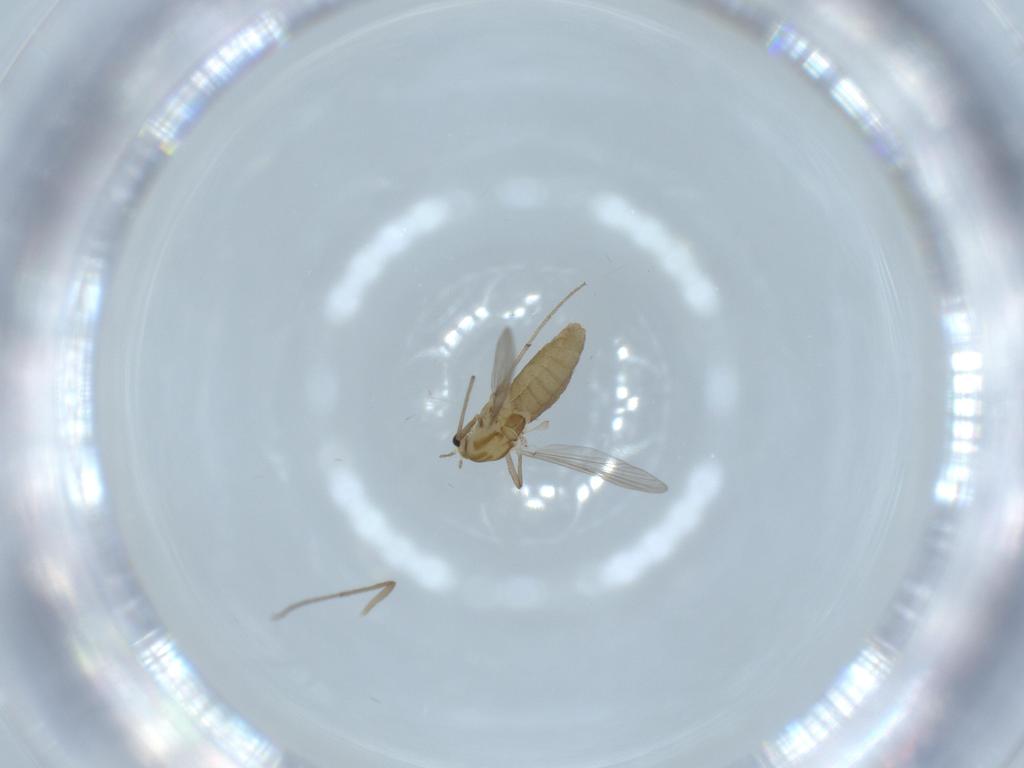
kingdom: Animalia
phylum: Arthropoda
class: Insecta
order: Diptera
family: Chironomidae
